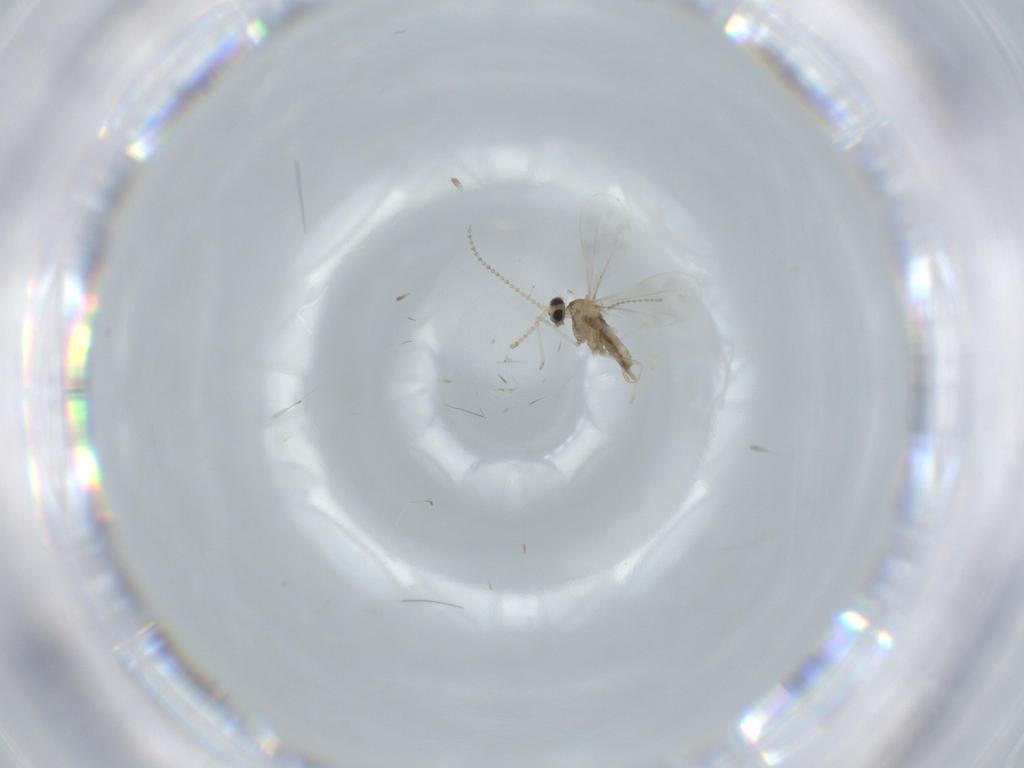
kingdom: Animalia
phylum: Arthropoda
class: Insecta
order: Diptera
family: Cecidomyiidae
